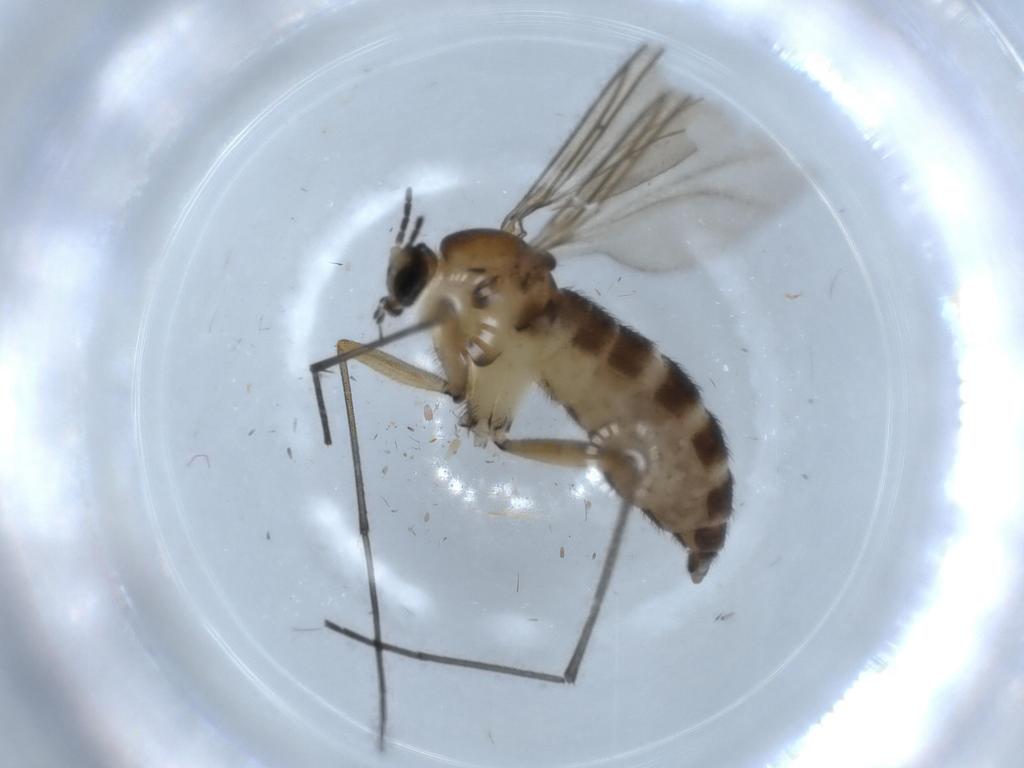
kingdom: Animalia
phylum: Arthropoda
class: Insecta
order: Diptera
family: Sciaridae
